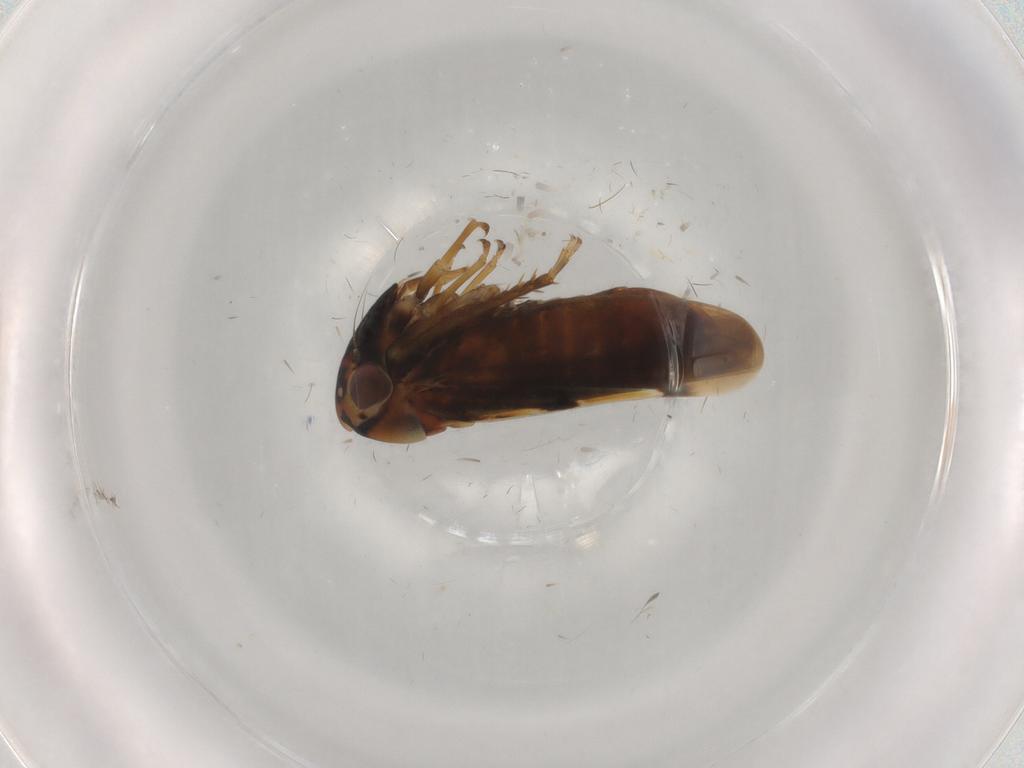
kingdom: Animalia
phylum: Arthropoda
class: Insecta
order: Hemiptera
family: Cicadellidae
